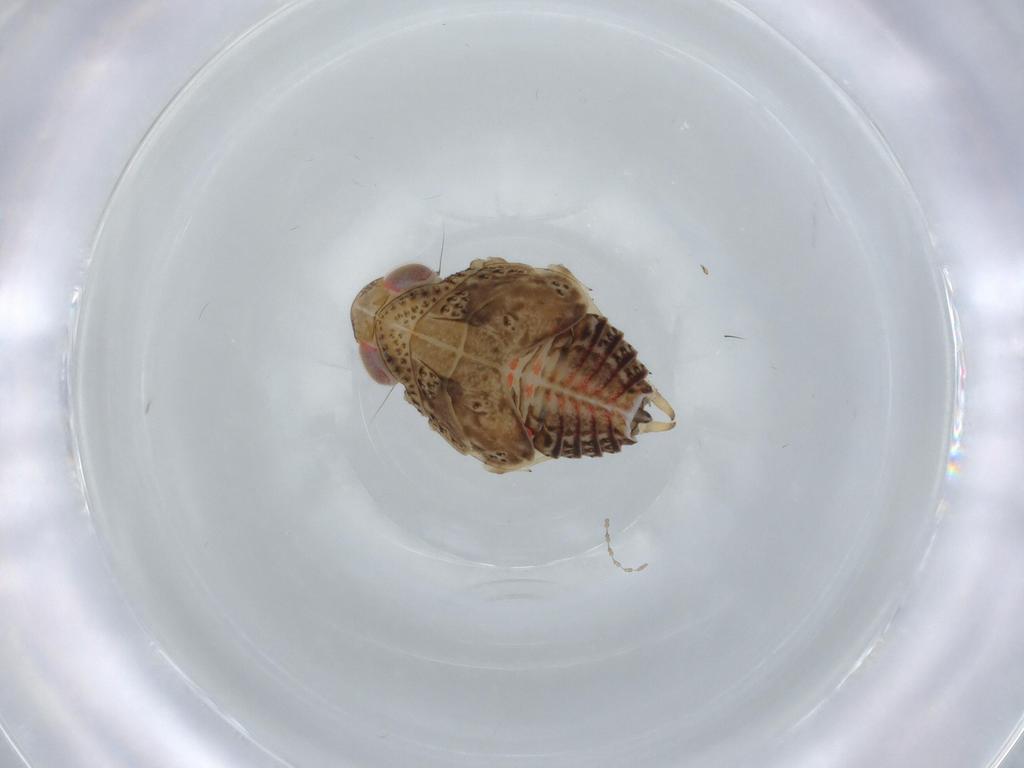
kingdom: Animalia
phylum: Arthropoda
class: Insecta
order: Hemiptera
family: Issidae
